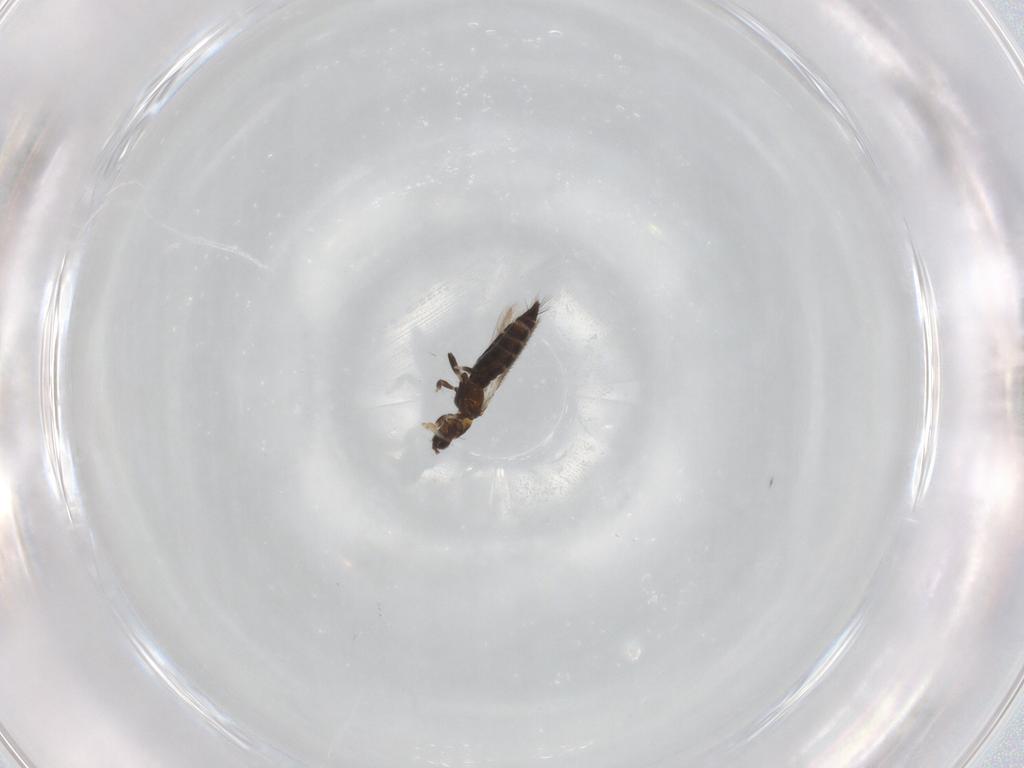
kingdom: Animalia
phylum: Arthropoda
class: Insecta
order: Thysanoptera
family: Thripidae
